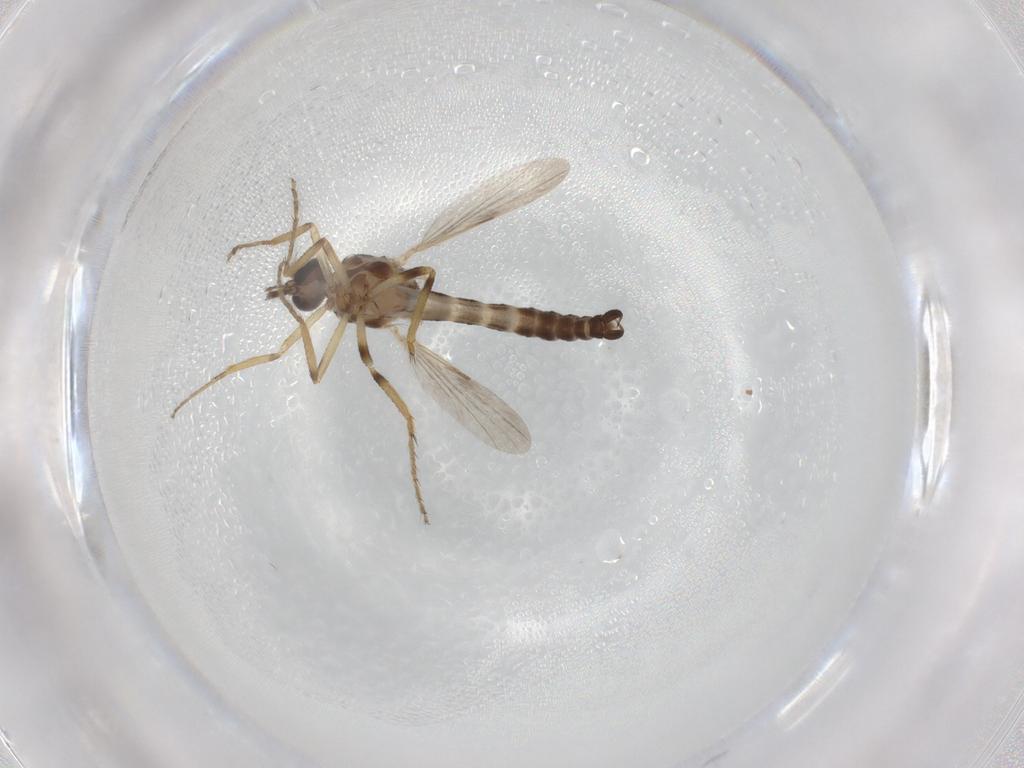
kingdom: Animalia
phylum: Arthropoda
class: Insecta
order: Diptera
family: Ceratopogonidae
